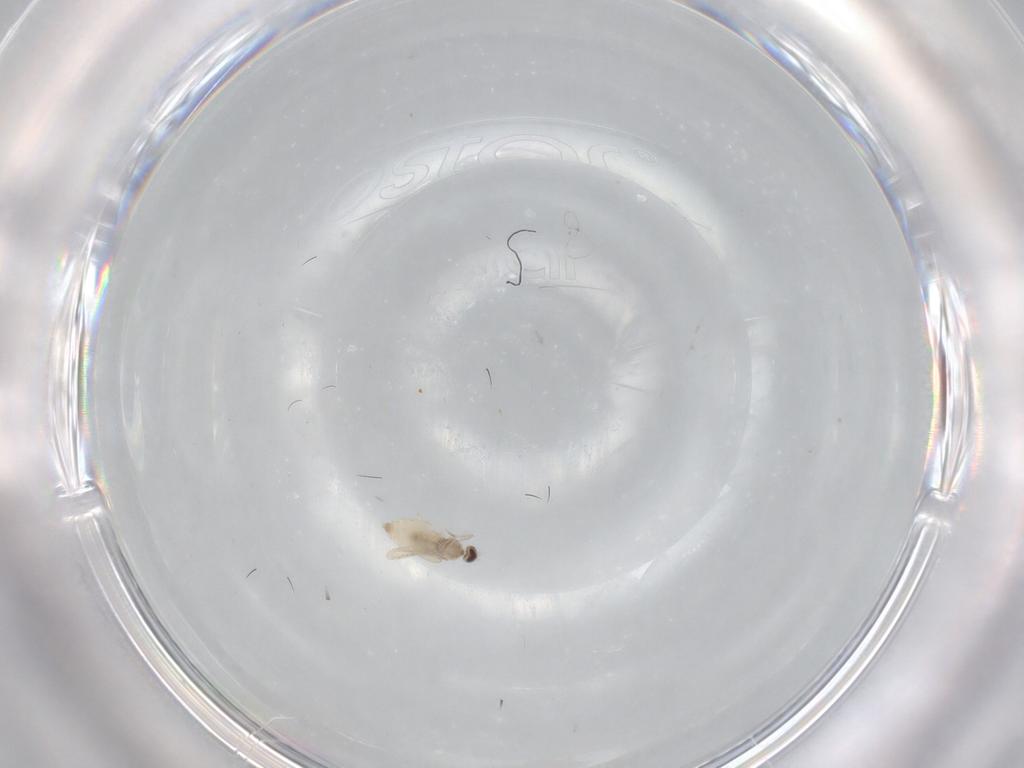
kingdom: Animalia
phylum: Arthropoda
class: Insecta
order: Diptera
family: Cecidomyiidae
